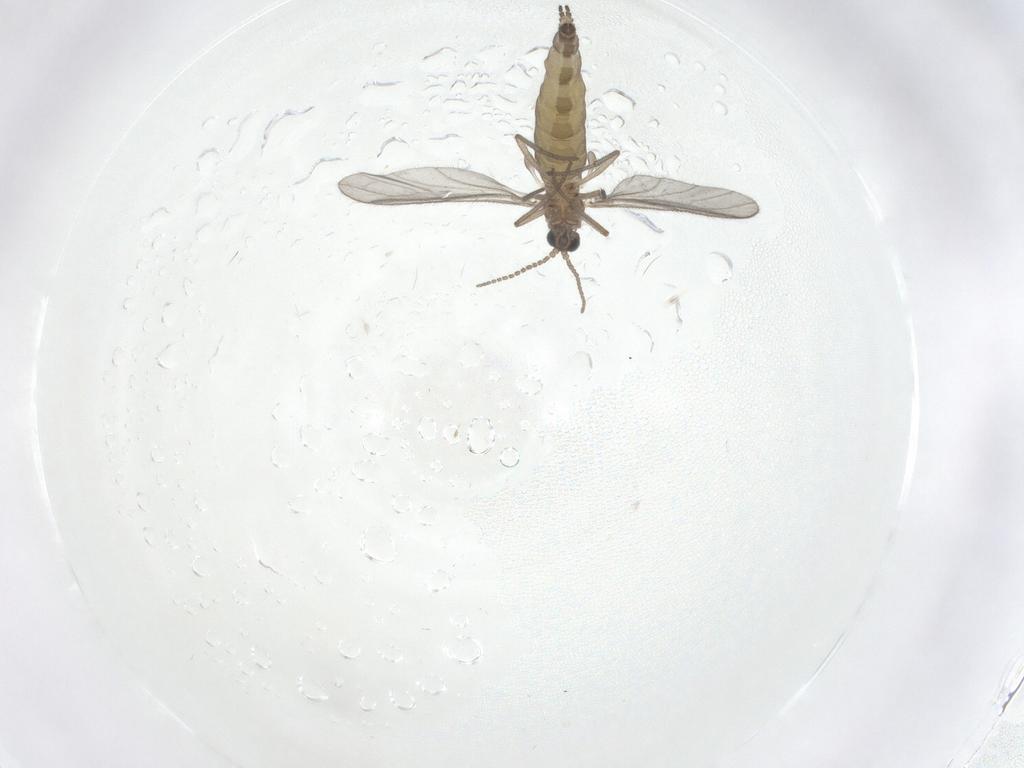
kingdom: Animalia
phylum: Arthropoda
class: Insecta
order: Diptera
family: Sciaridae
